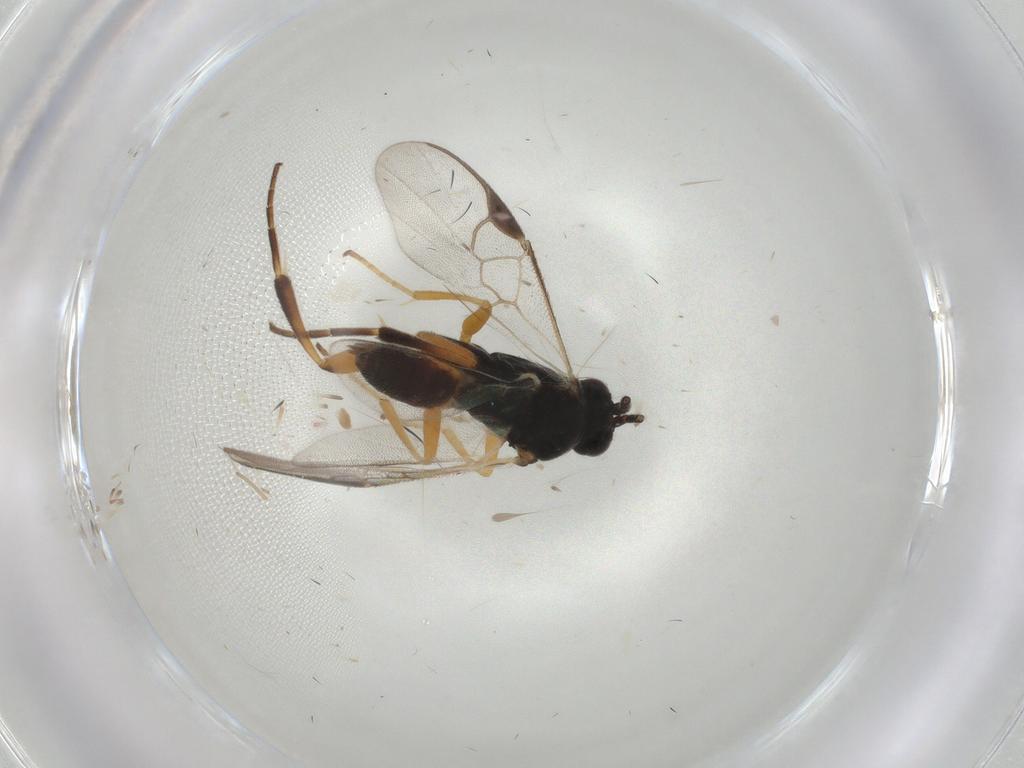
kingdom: Animalia
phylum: Arthropoda
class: Insecta
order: Hymenoptera
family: Braconidae
